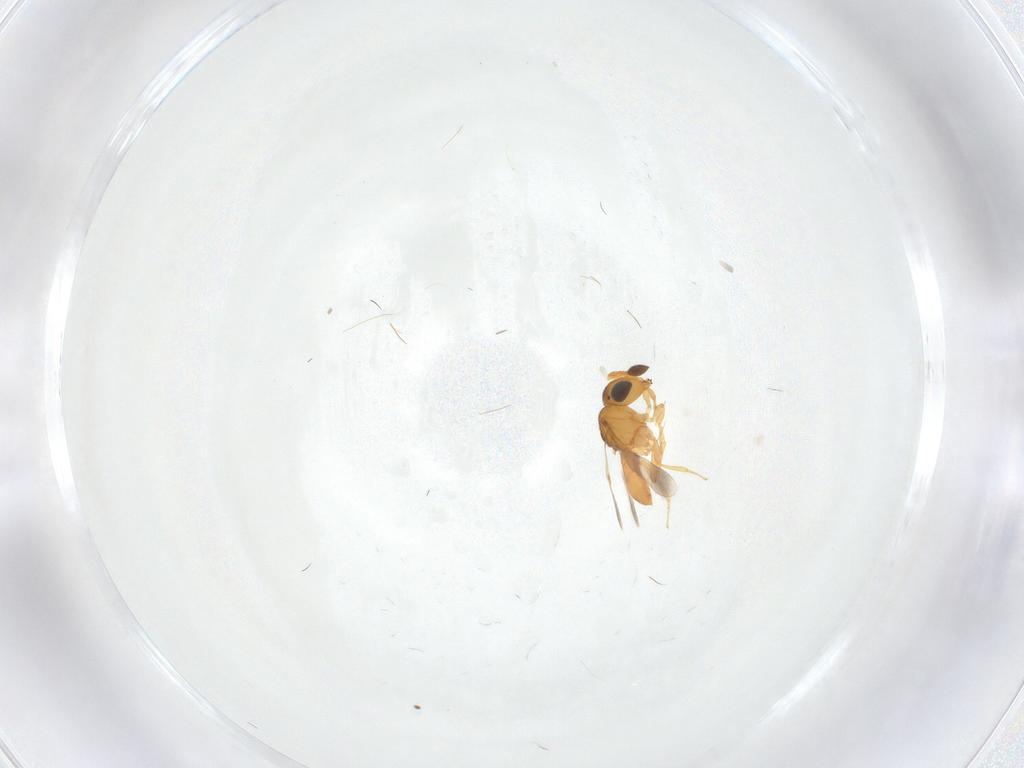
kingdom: Animalia
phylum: Arthropoda
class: Insecta
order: Hymenoptera
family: Scelionidae
